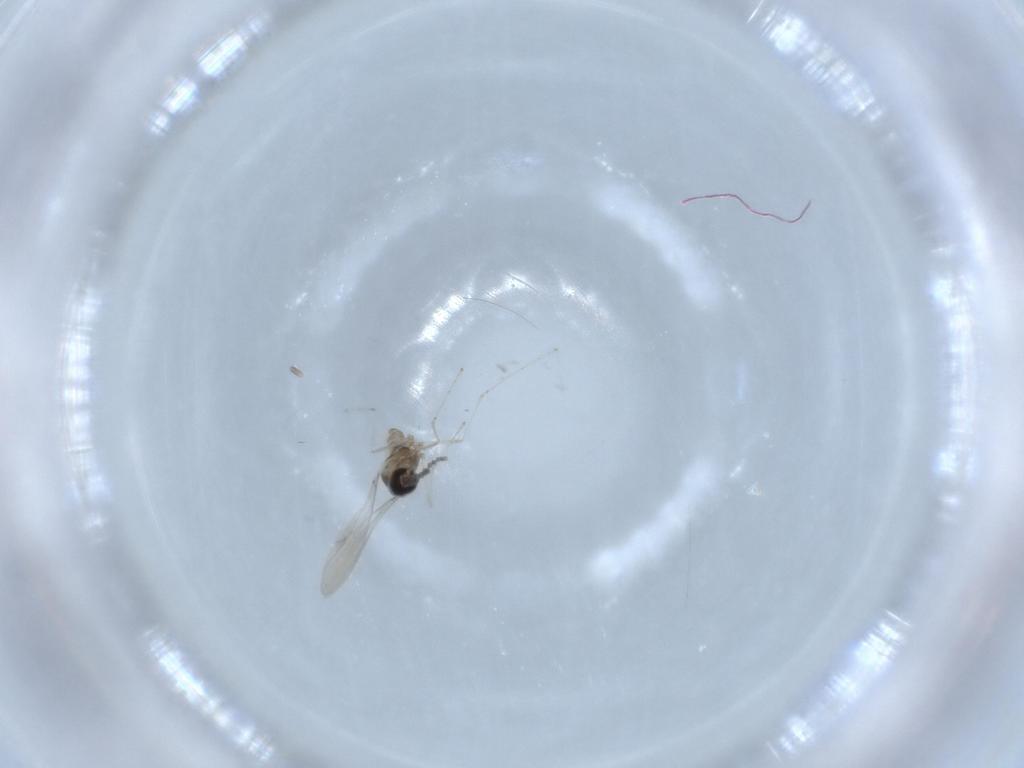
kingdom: Animalia
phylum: Arthropoda
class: Insecta
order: Diptera
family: Cecidomyiidae
